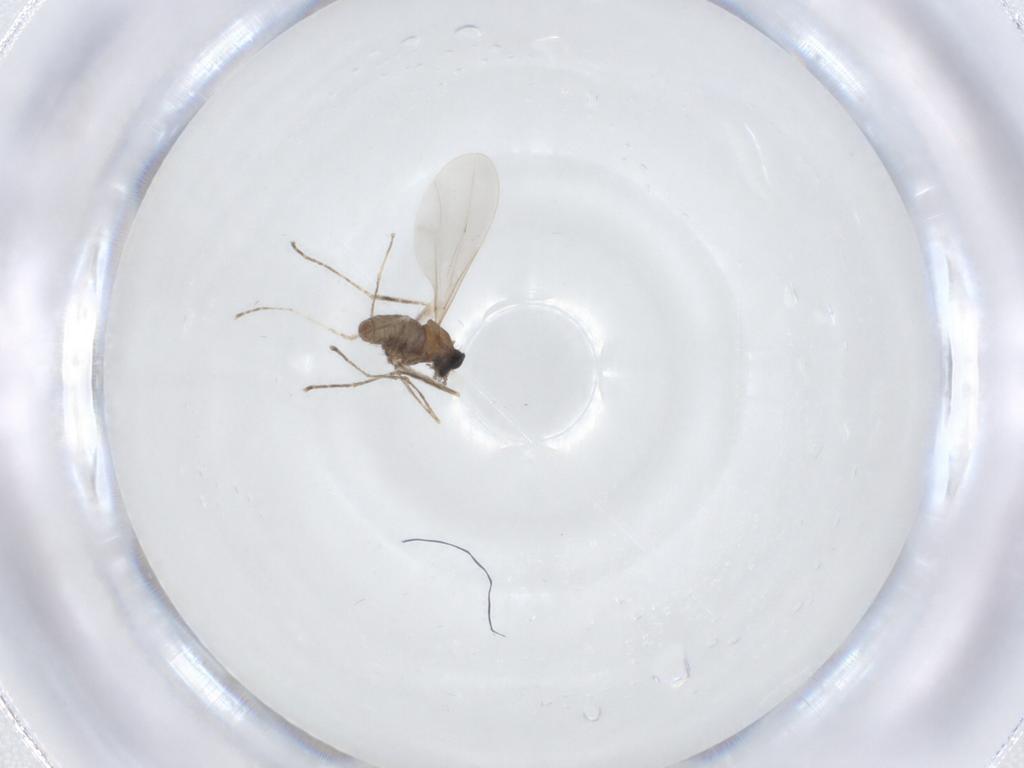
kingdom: Animalia
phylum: Arthropoda
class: Insecta
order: Diptera
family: Cecidomyiidae
